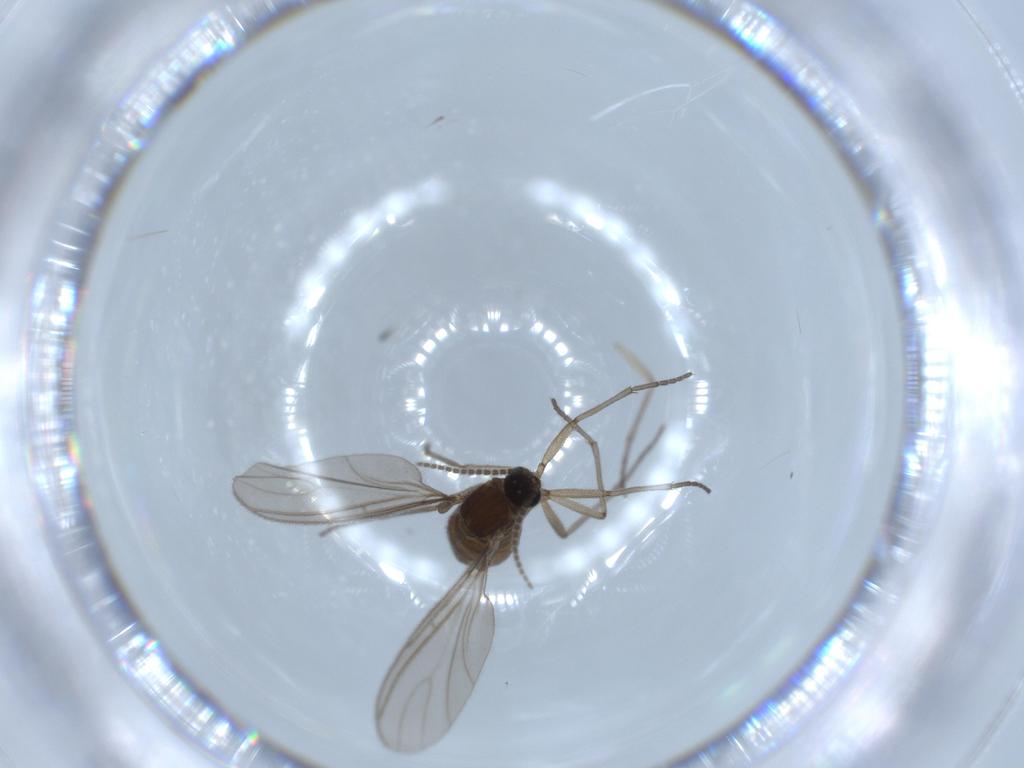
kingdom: Animalia
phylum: Arthropoda
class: Insecta
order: Diptera
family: Sciaridae
